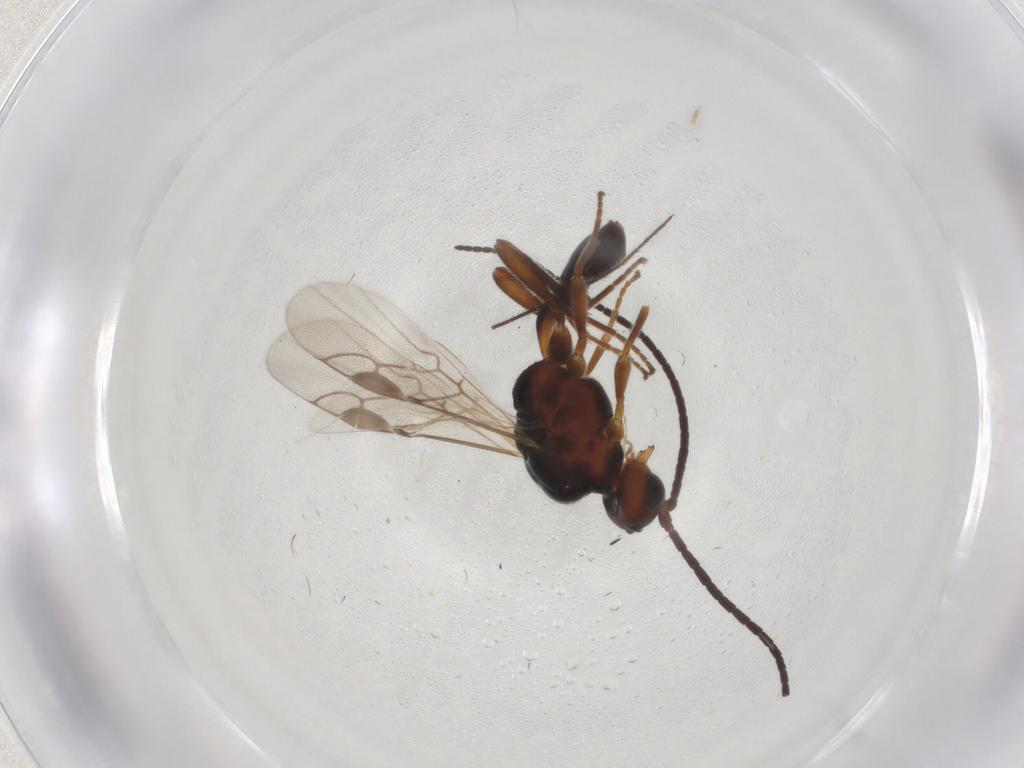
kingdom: Animalia
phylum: Arthropoda
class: Insecta
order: Hymenoptera
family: Braconidae
